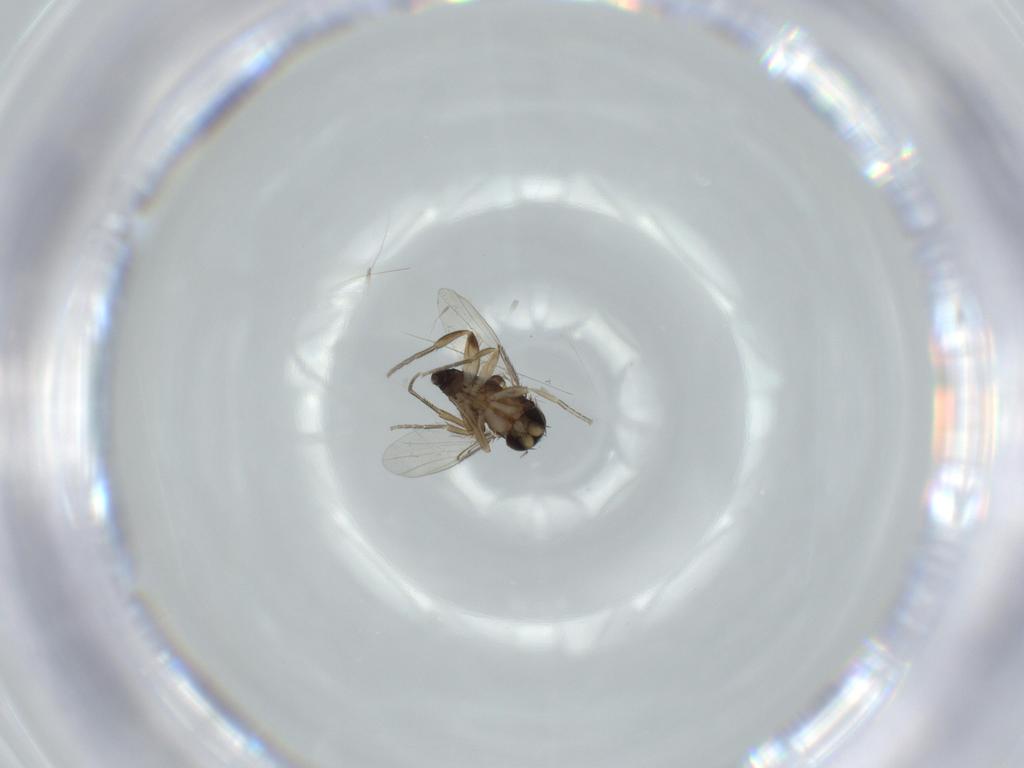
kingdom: Animalia
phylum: Arthropoda
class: Insecta
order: Diptera
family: Phoridae
